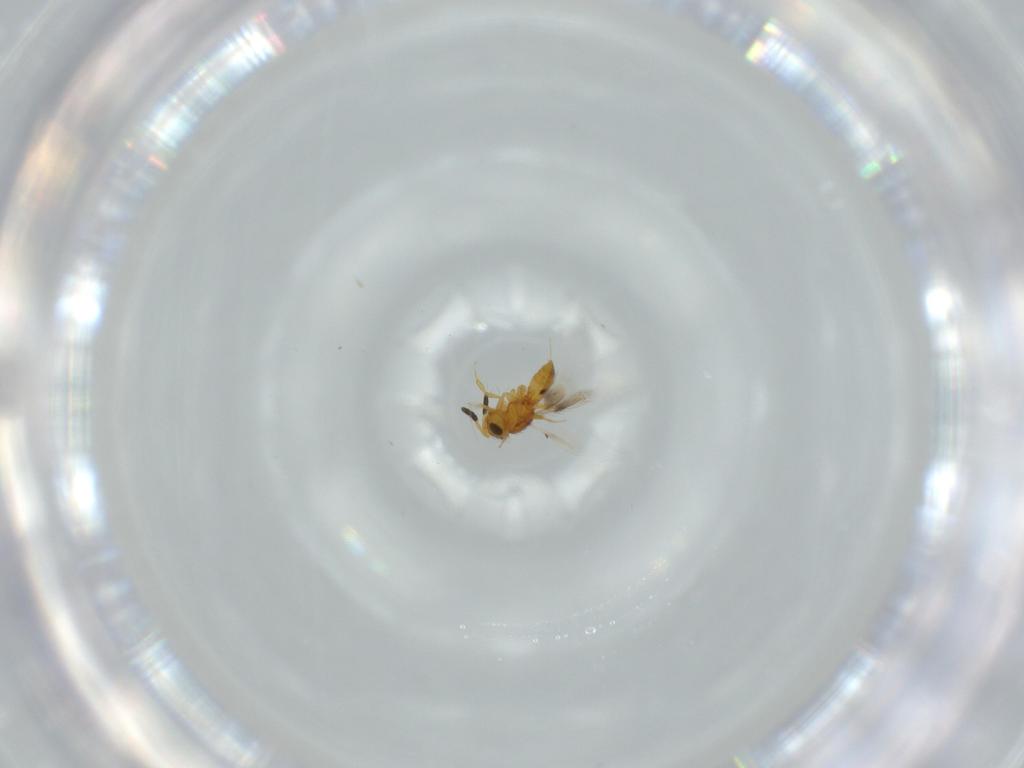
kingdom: Animalia
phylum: Arthropoda
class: Insecta
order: Hymenoptera
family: Scelionidae
